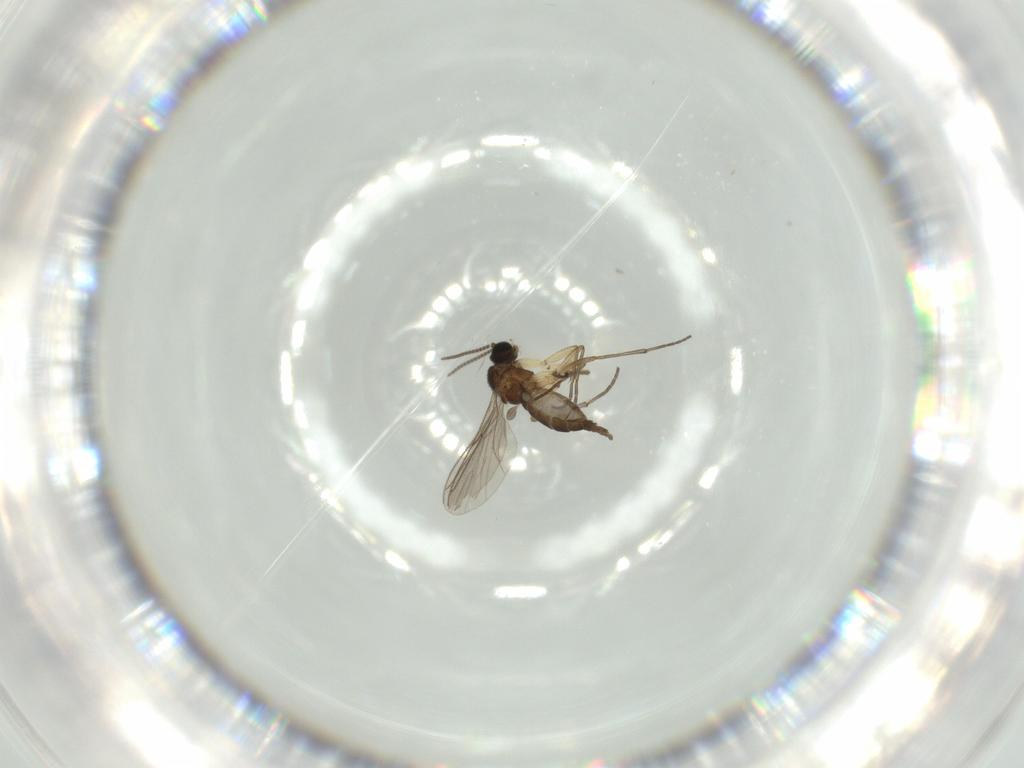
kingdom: Animalia
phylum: Arthropoda
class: Insecta
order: Diptera
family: Sciaridae
